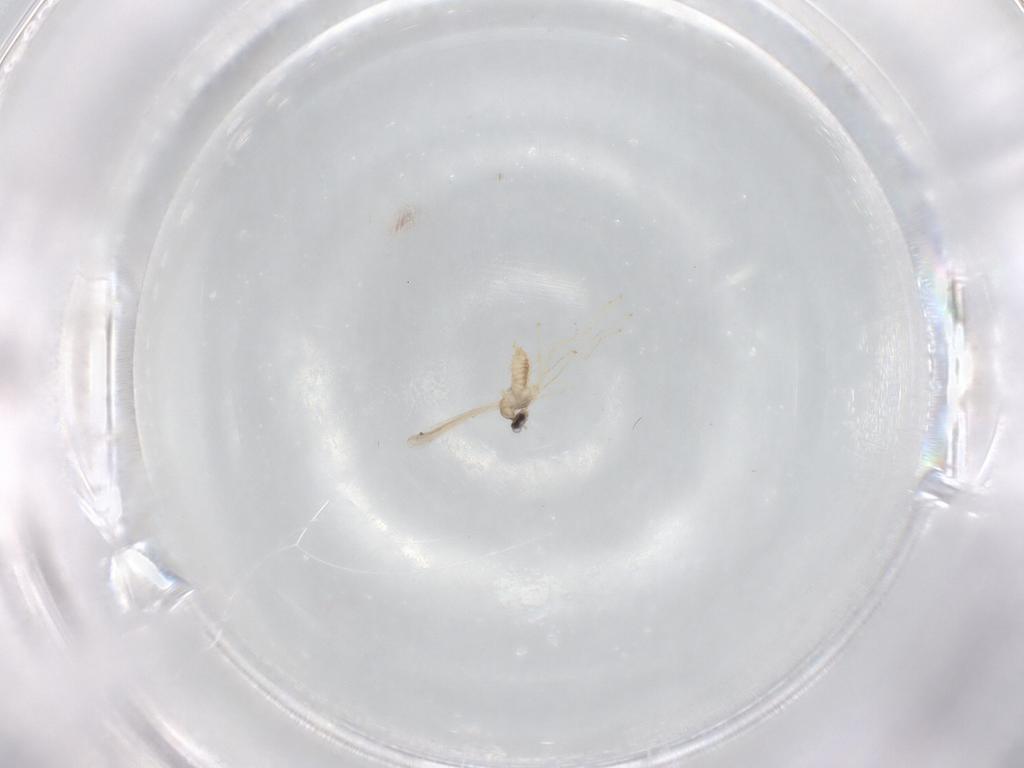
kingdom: Animalia
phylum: Arthropoda
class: Insecta
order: Diptera
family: Cecidomyiidae
